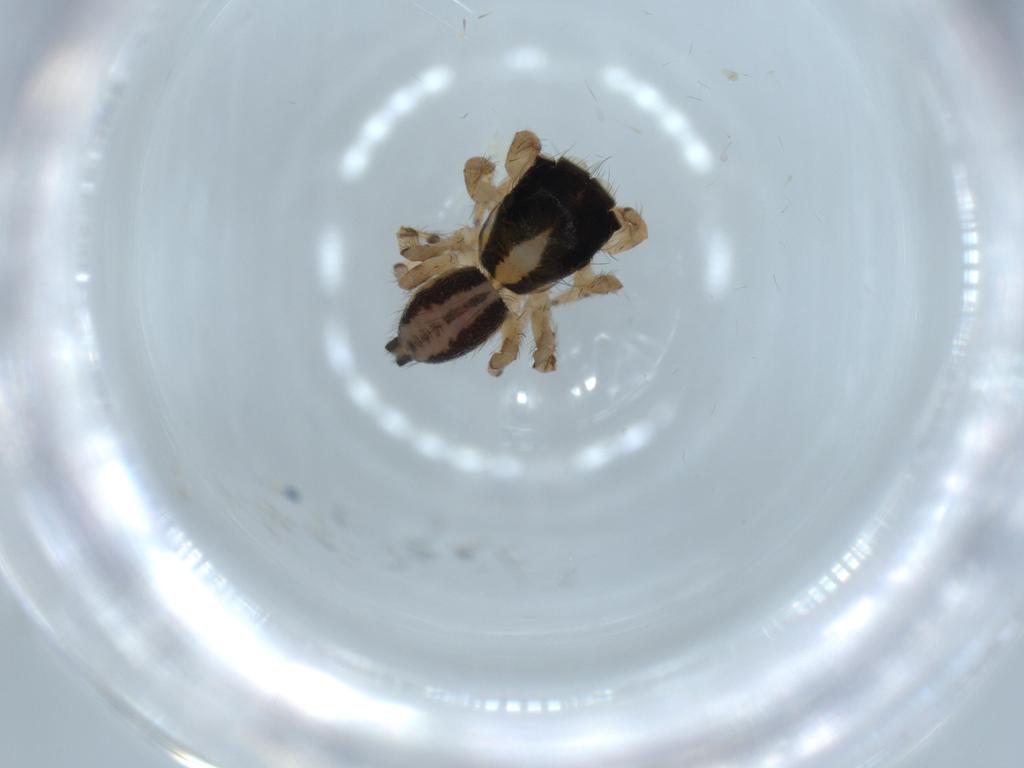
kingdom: Animalia
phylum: Arthropoda
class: Arachnida
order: Araneae
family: Salticidae
